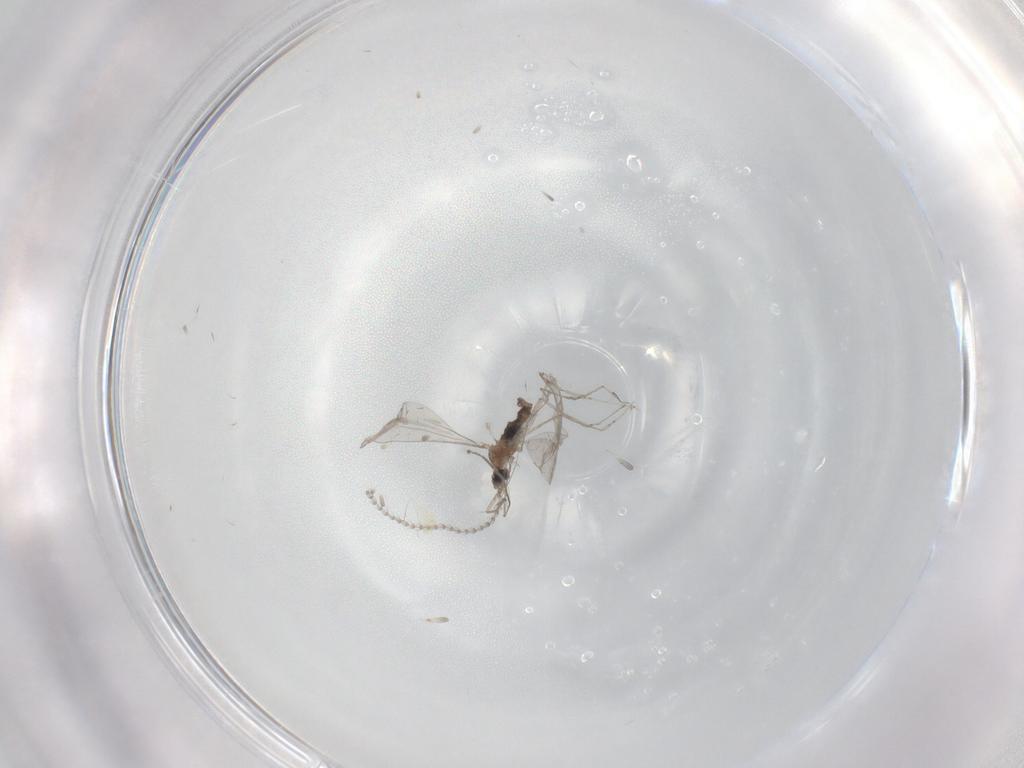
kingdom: Animalia
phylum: Arthropoda
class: Insecta
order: Diptera
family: Cecidomyiidae
